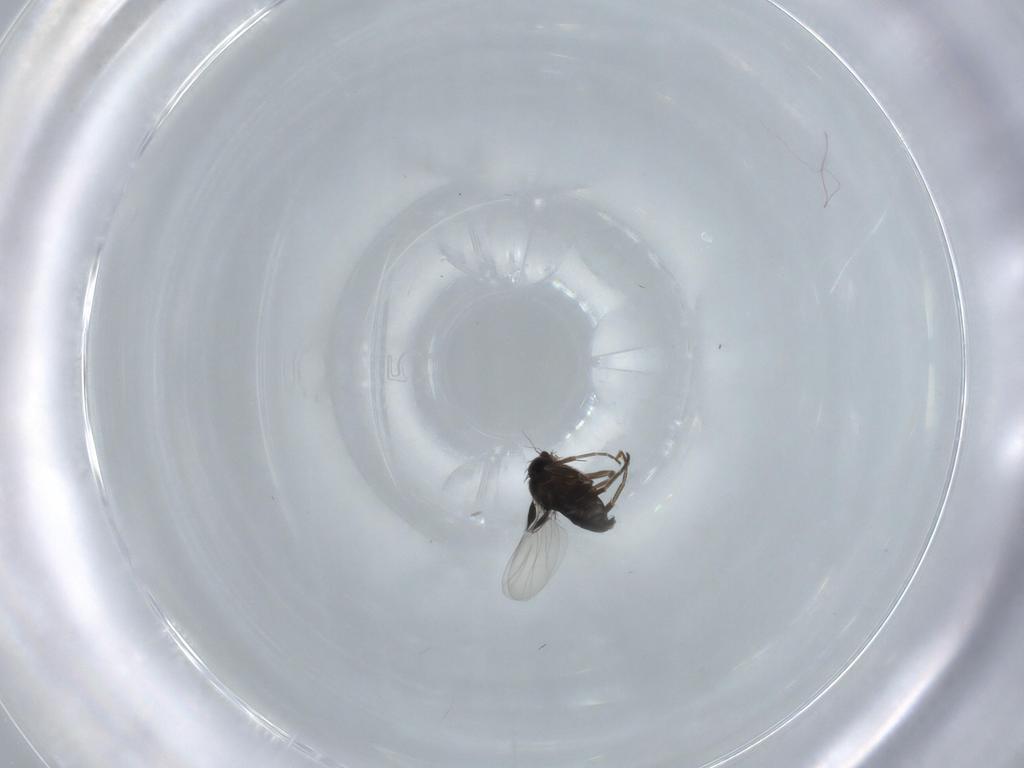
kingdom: Animalia
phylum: Arthropoda
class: Insecta
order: Diptera
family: Phoridae
